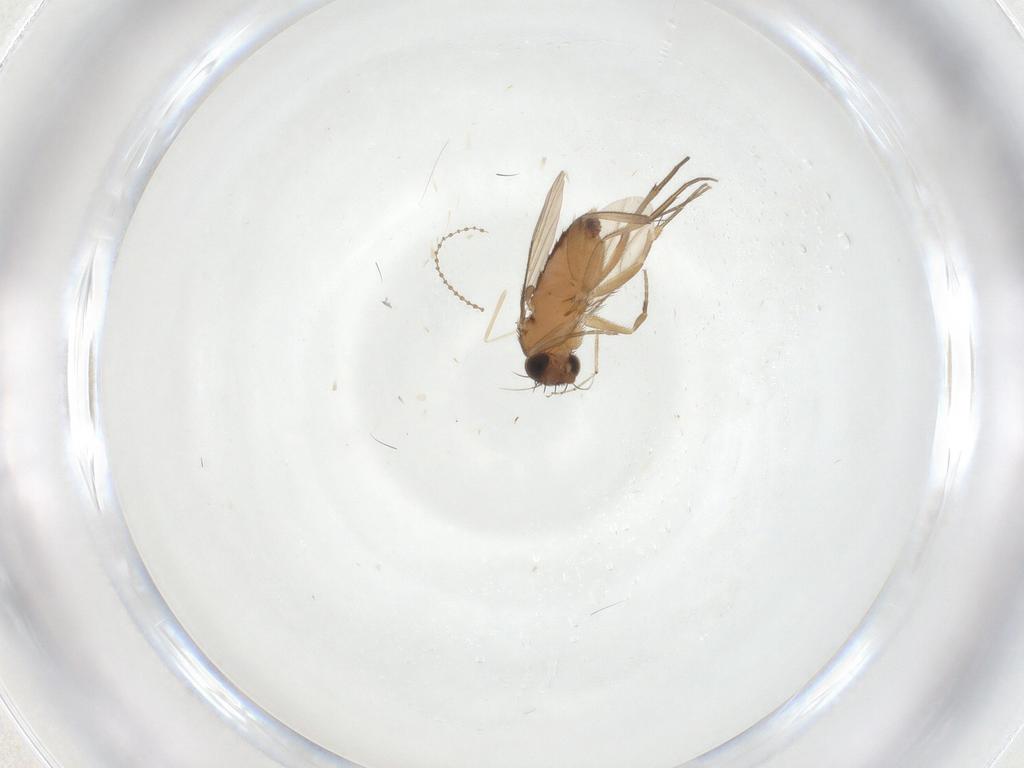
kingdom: Animalia
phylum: Arthropoda
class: Insecta
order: Diptera
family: Phoridae
